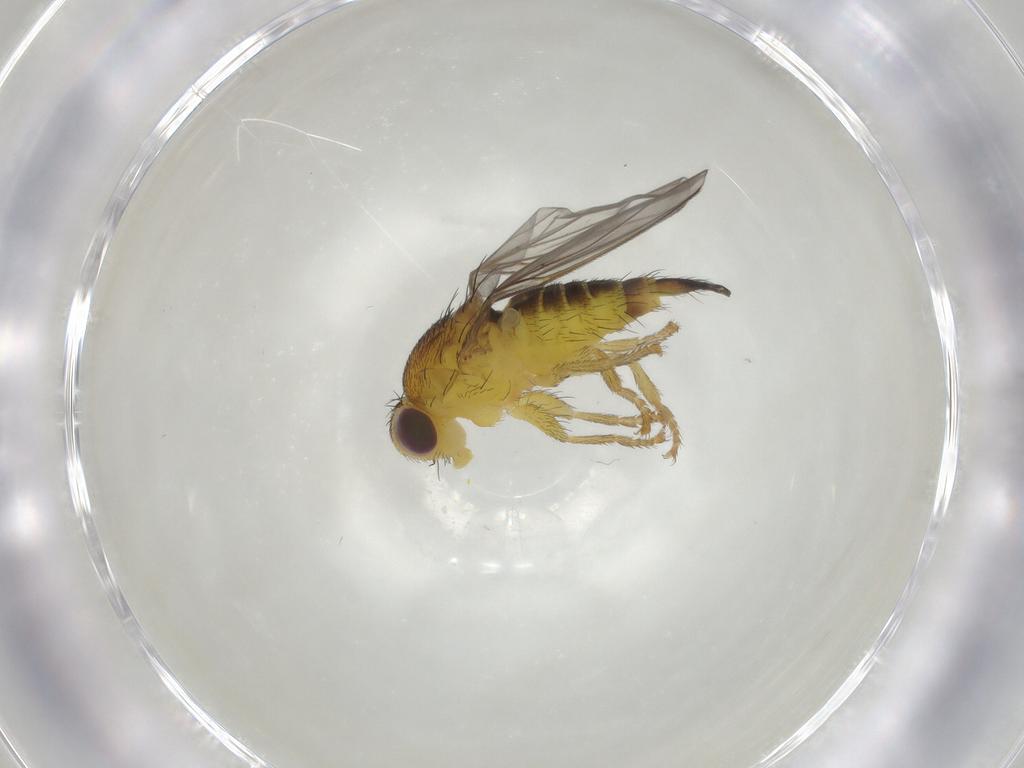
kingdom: Animalia
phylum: Arthropoda
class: Insecta
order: Diptera
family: Fergusoninidae
